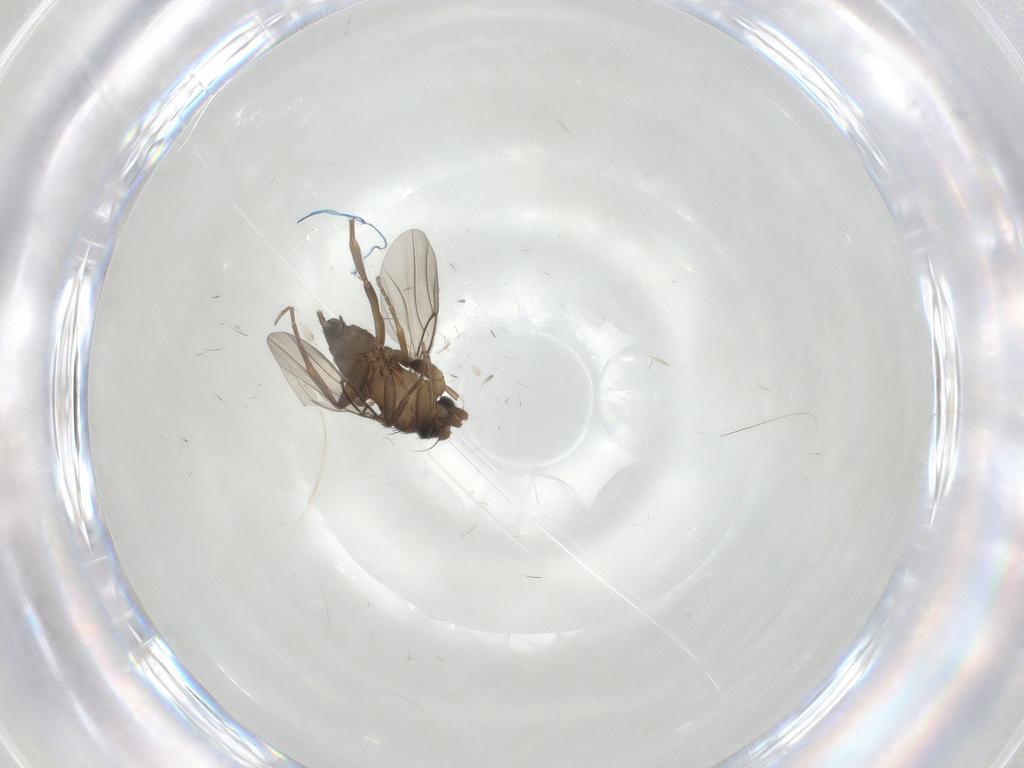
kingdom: Animalia
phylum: Arthropoda
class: Insecta
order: Diptera
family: Phoridae
